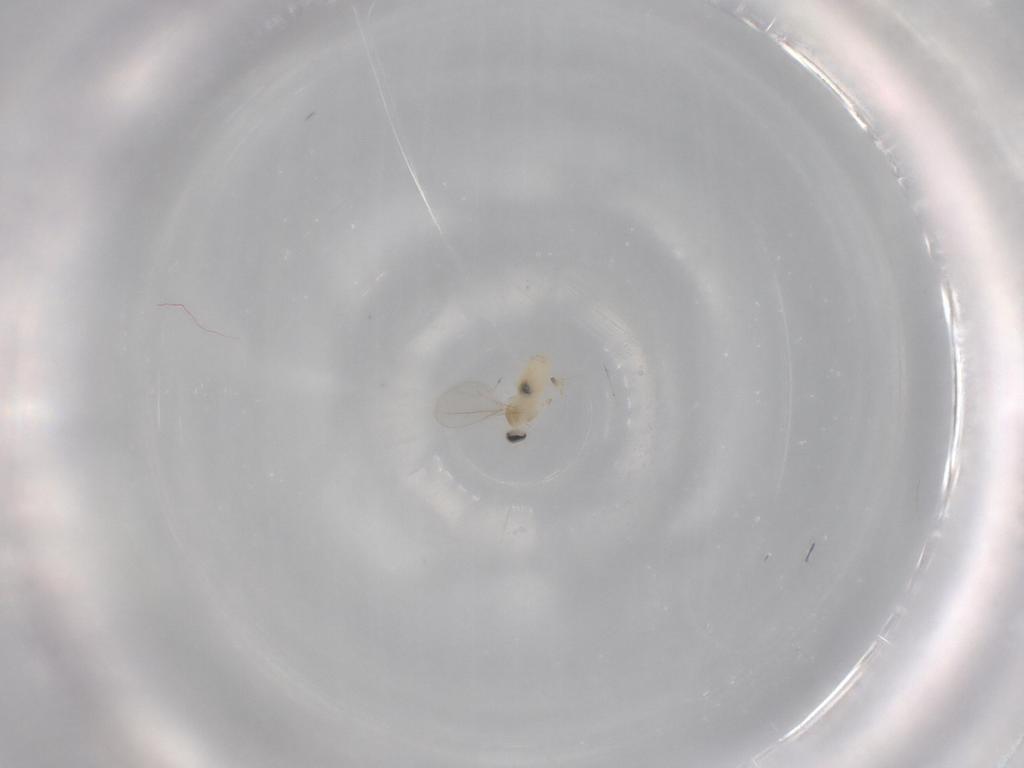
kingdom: Animalia
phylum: Arthropoda
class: Insecta
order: Diptera
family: Cecidomyiidae
